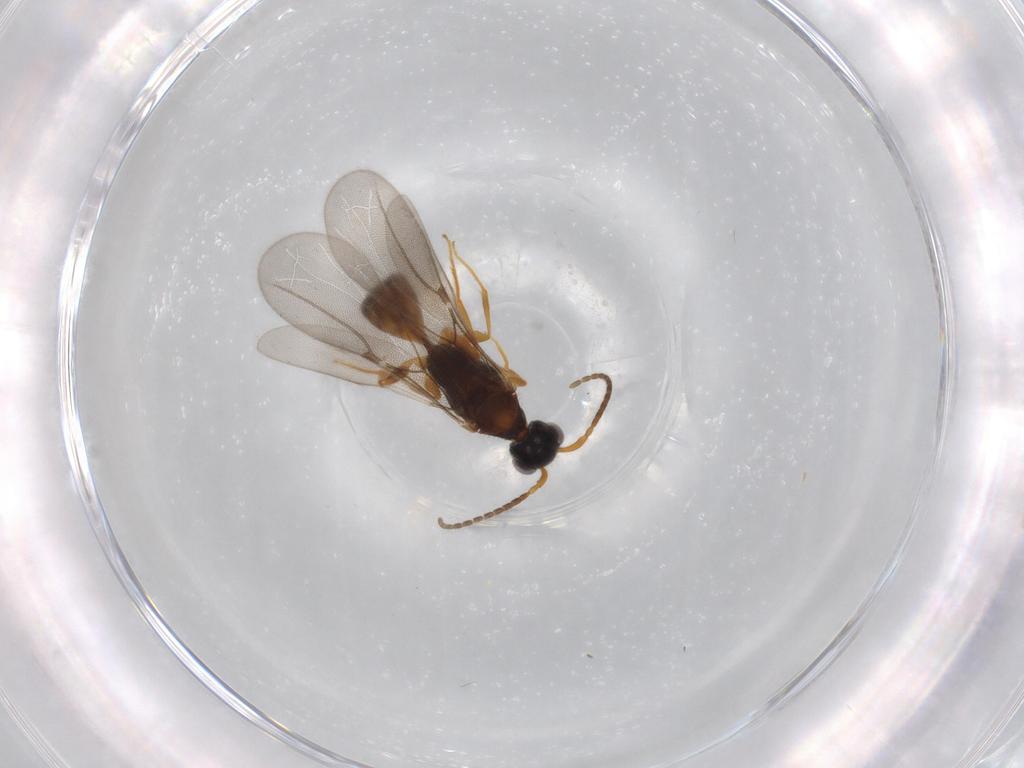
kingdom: Animalia
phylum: Arthropoda
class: Insecta
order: Hymenoptera
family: Bethylidae
